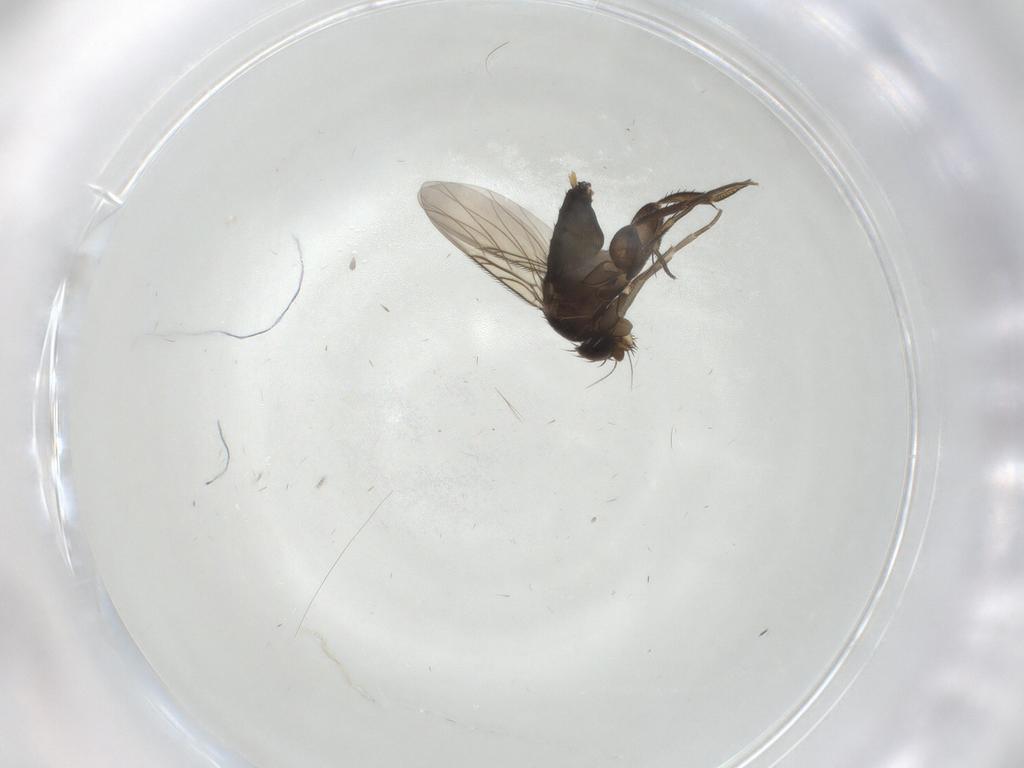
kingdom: Animalia
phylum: Arthropoda
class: Insecta
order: Diptera
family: Phoridae
